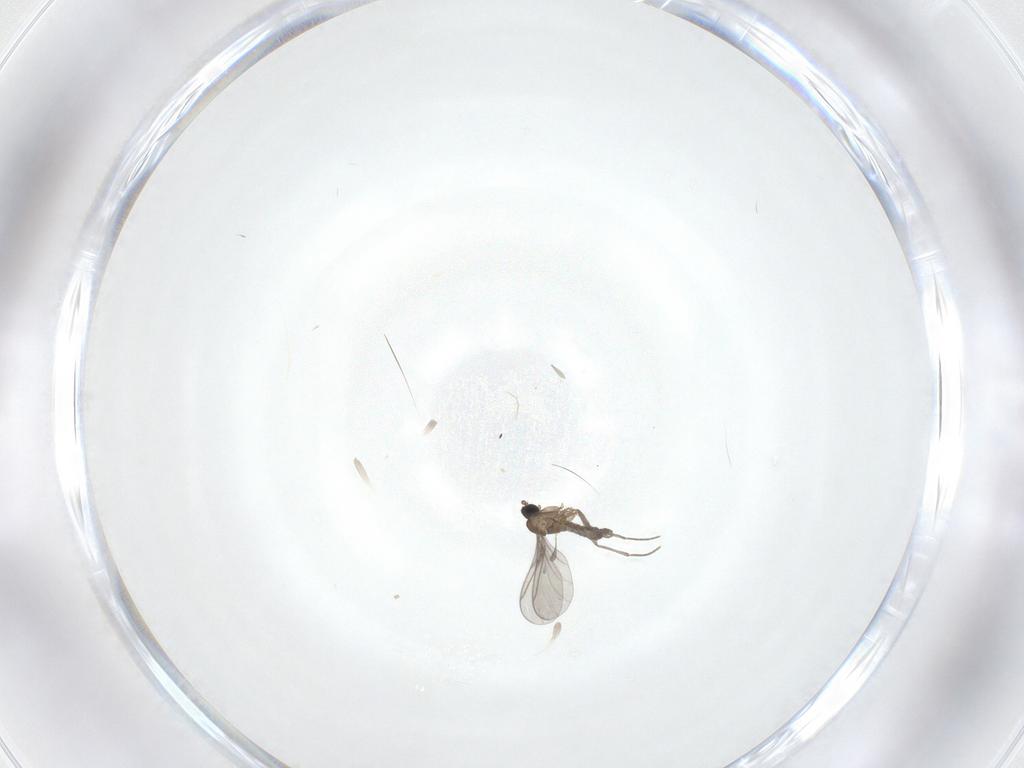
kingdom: Animalia
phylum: Arthropoda
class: Insecta
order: Diptera
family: Sciaridae
